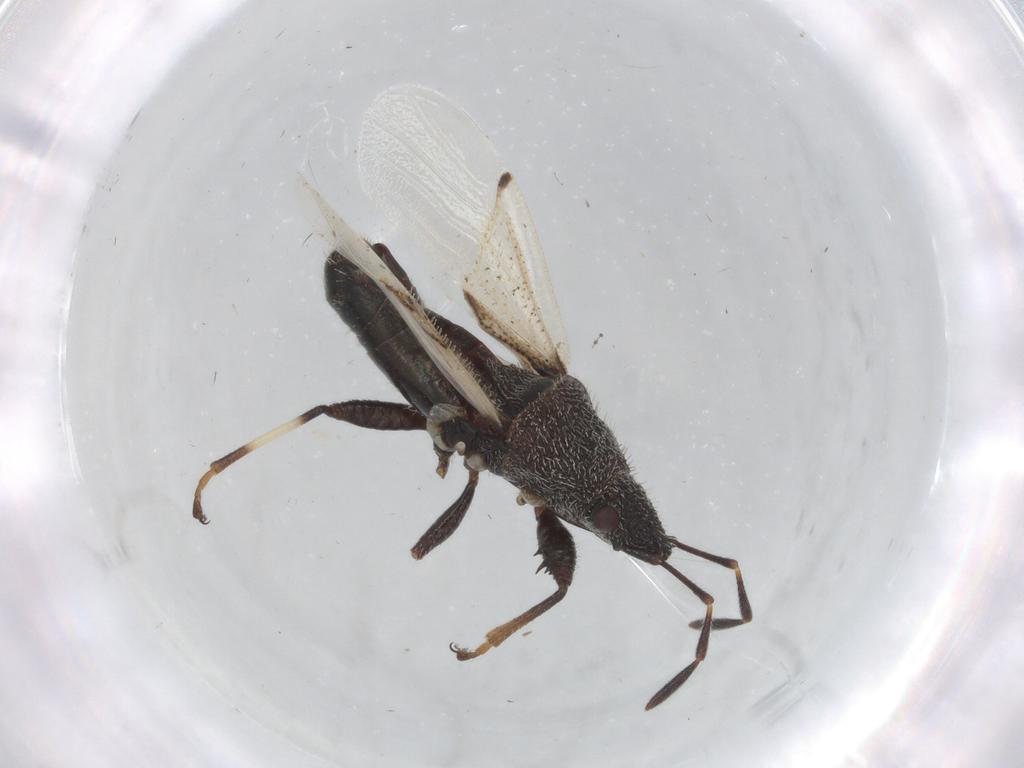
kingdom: Animalia
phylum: Arthropoda
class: Insecta
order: Hemiptera
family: Oxycarenidae
